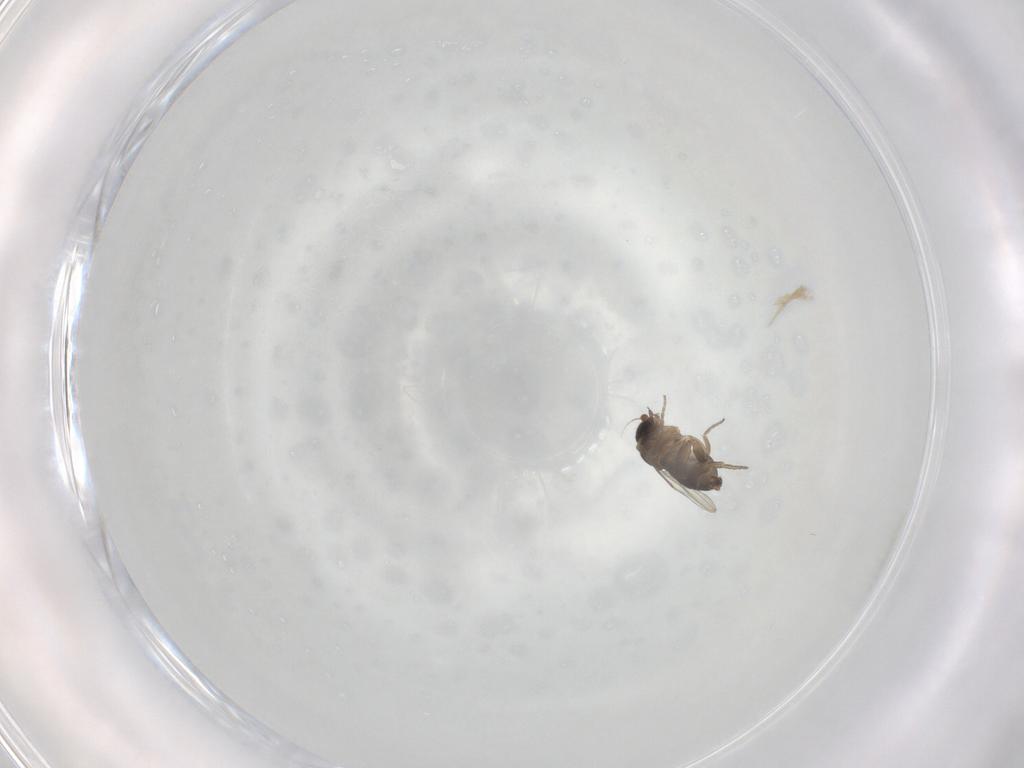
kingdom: Animalia
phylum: Arthropoda
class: Insecta
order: Diptera
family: Phoridae
